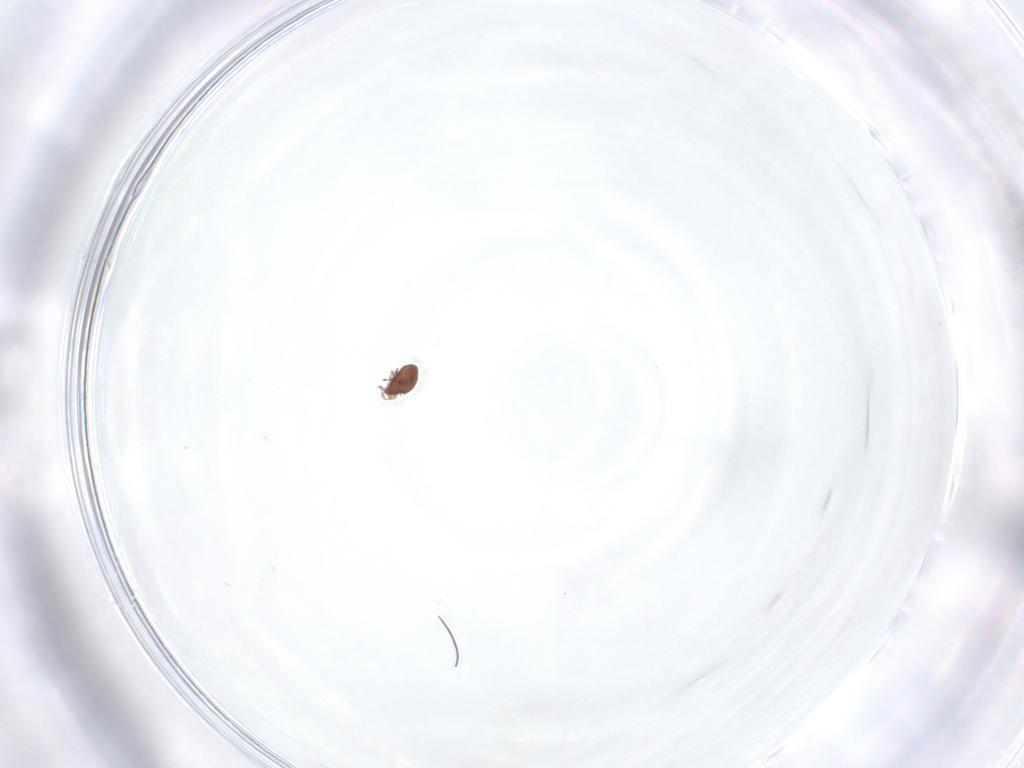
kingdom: Animalia
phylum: Arthropoda
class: Arachnida
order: Sarcoptiformes
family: Dendroeremaeidae
